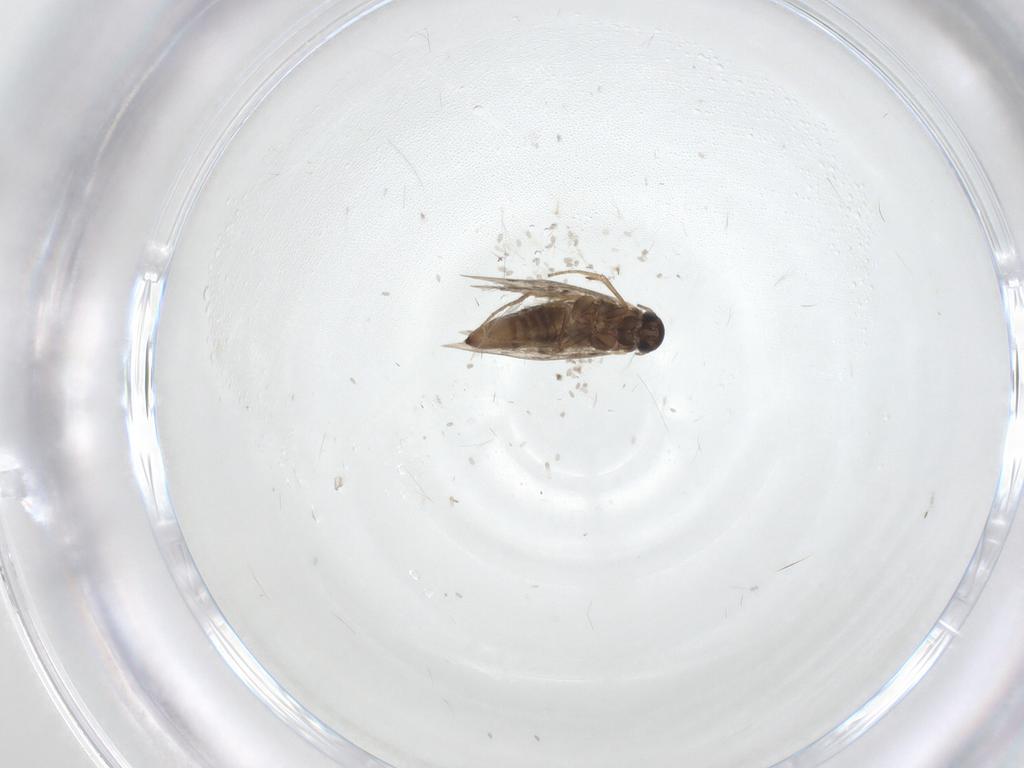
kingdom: Animalia
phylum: Arthropoda
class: Insecta
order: Lepidoptera
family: Heliozelidae
